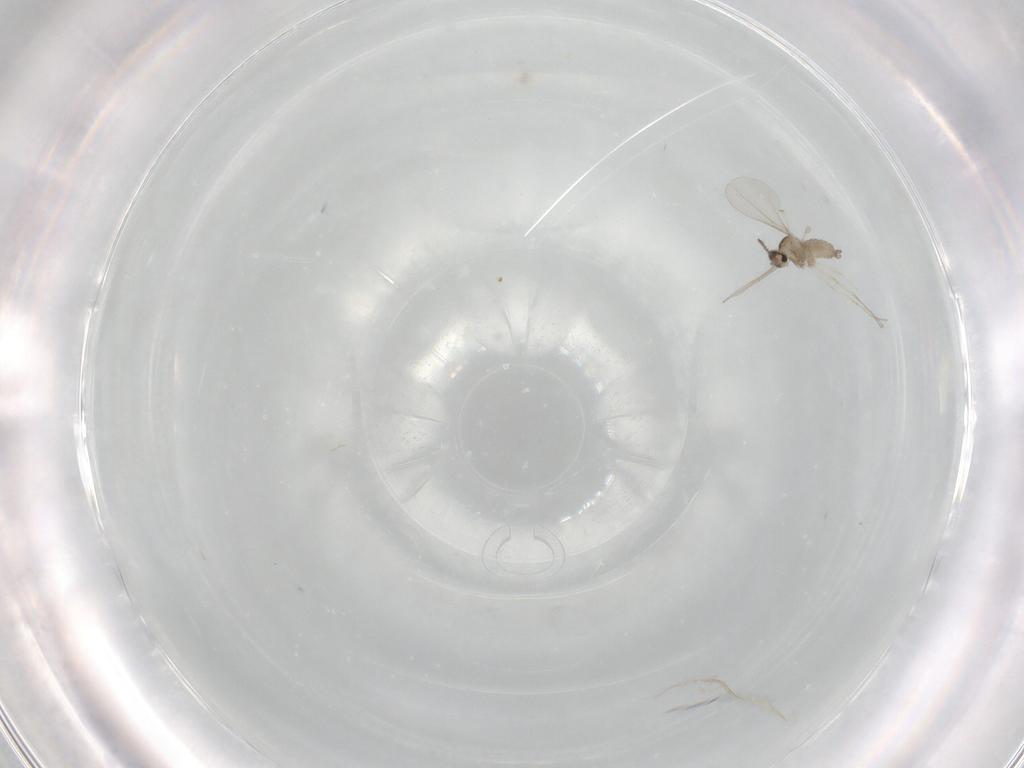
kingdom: Animalia
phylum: Arthropoda
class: Insecta
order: Diptera
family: Cecidomyiidae
